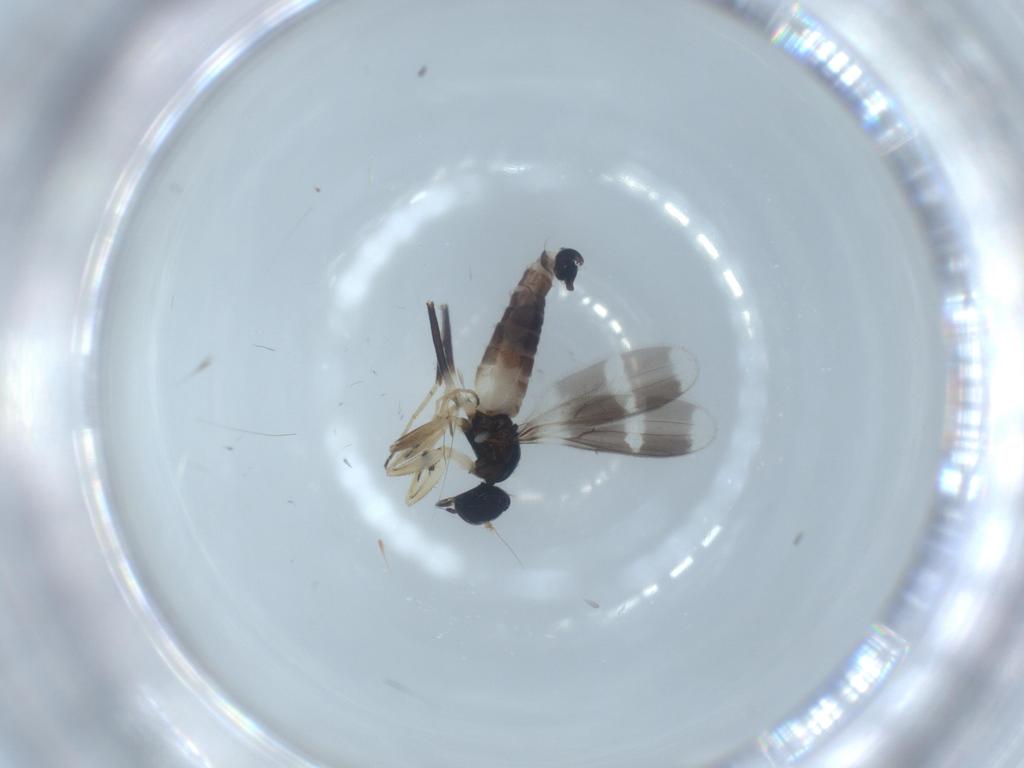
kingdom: Animalia
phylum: Arthropoda
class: Insecta
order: Diptera
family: Hybotidae
